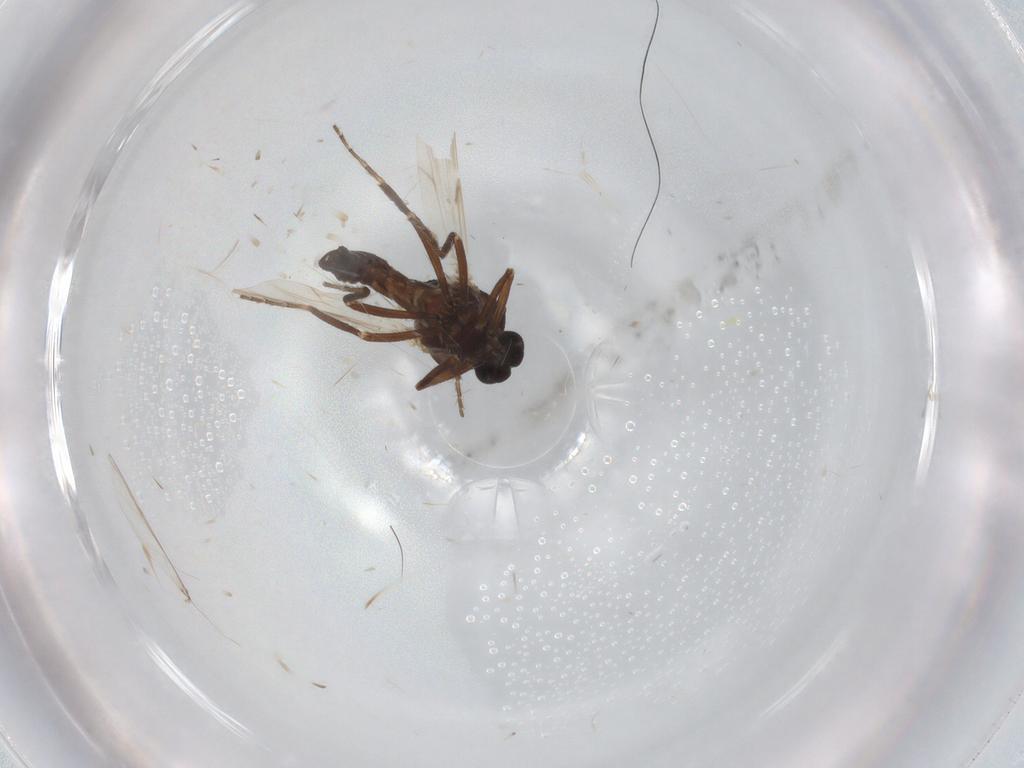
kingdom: Animalia
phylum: Arthropoda
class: Insecta
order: Diptera
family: Ceratopogonidae
